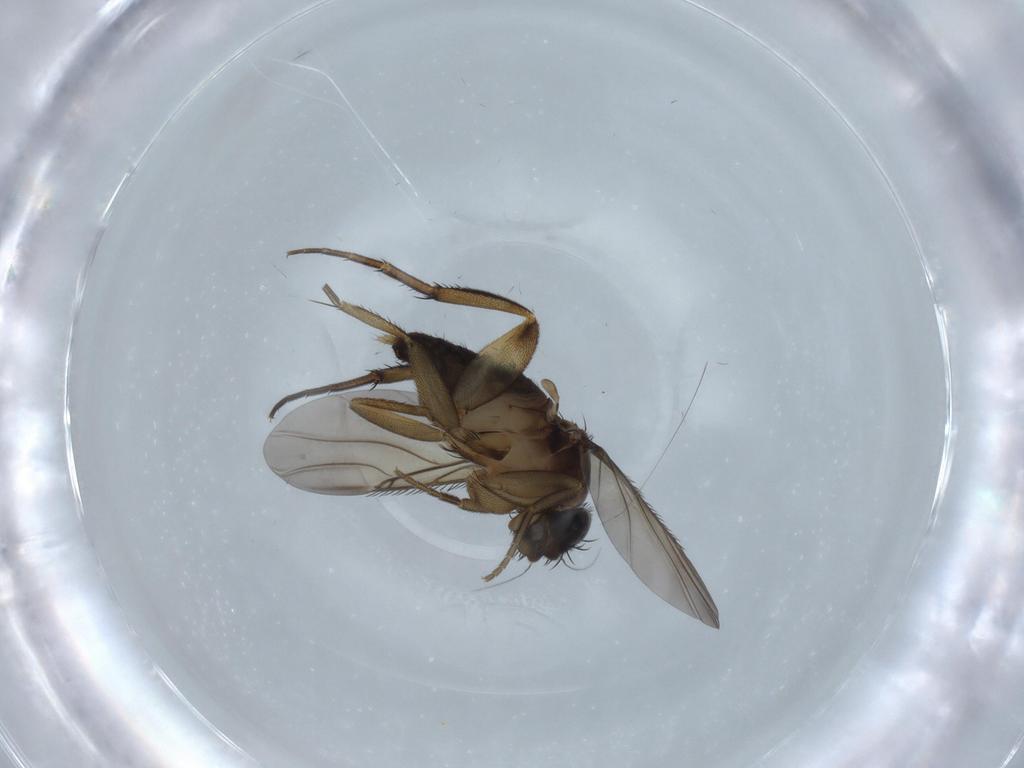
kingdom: Animalia
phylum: Arthropoda
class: Insecta
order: Diptera
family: Phoridae
